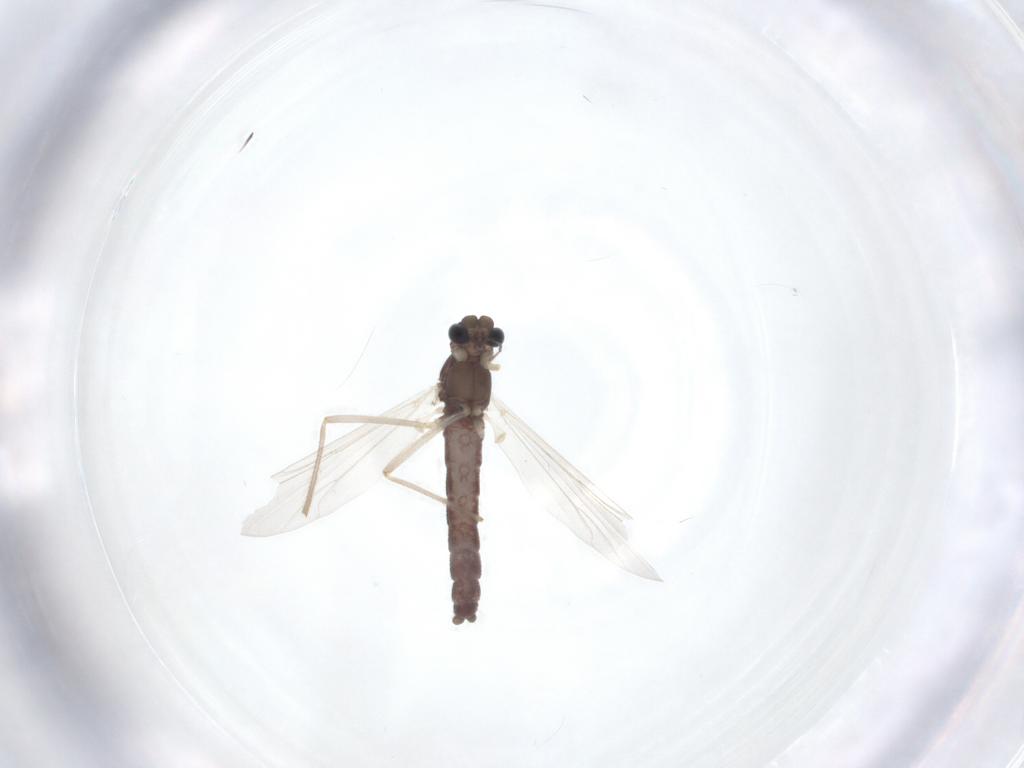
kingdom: Animalia
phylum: Arthropoda
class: Insecta
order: Diptera
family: Chironomidae
